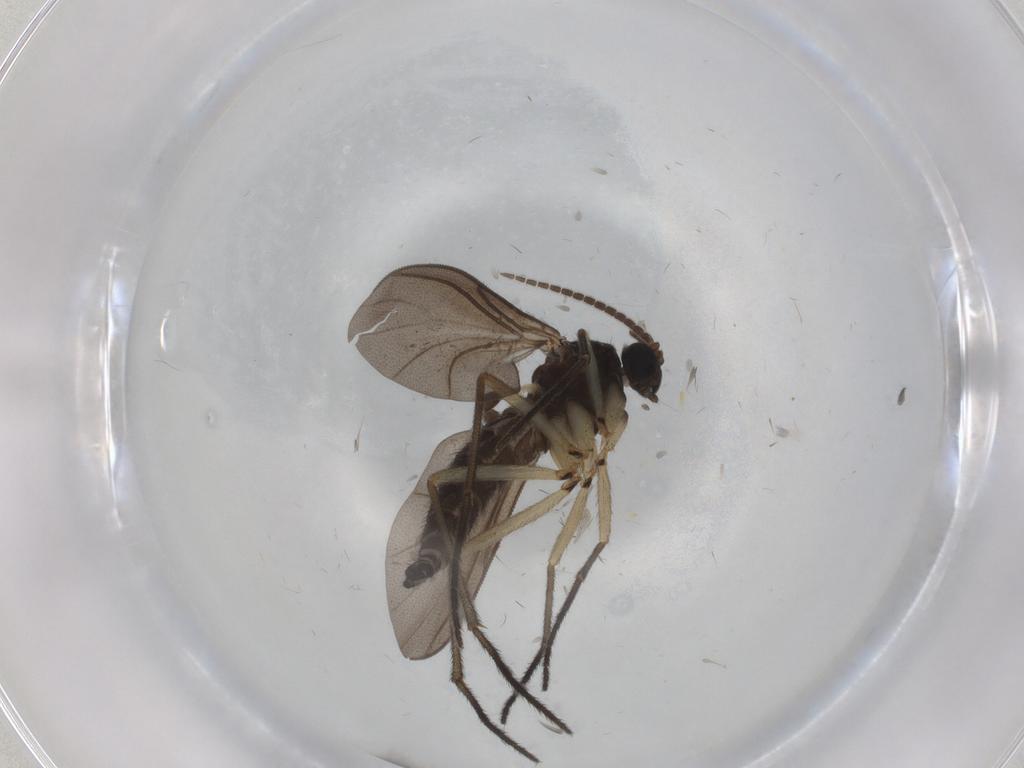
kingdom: Animalia
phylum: Arthropoda
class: Insecta
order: Diptera
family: Sciaridae
